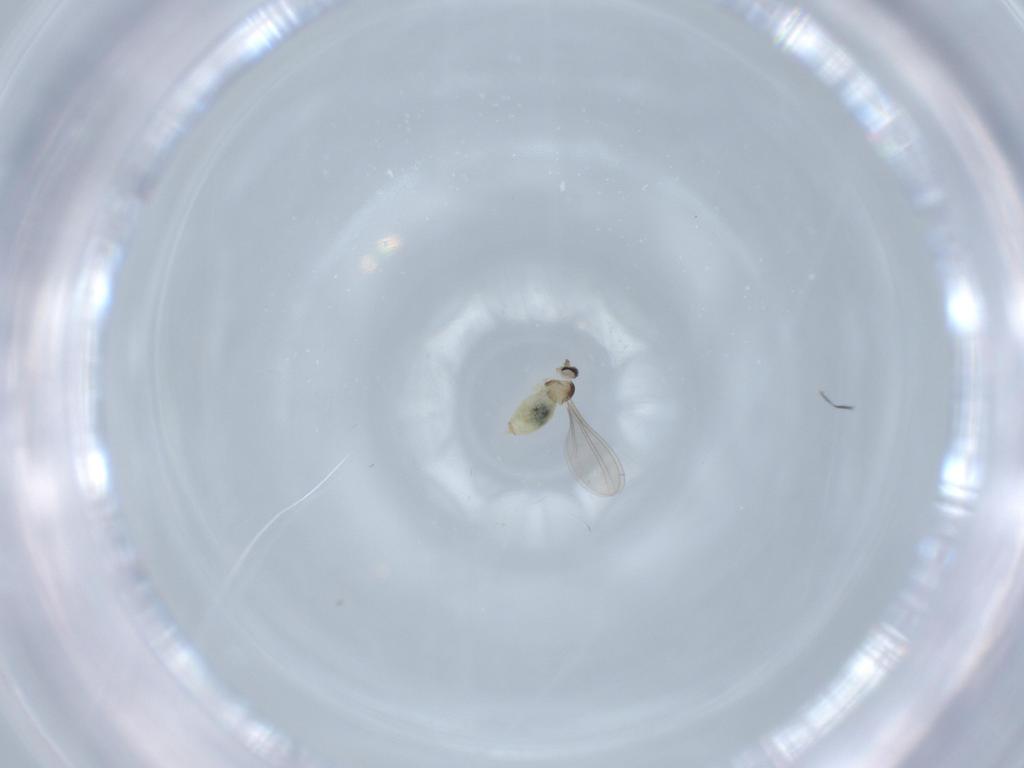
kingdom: Animalia
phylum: Arthropoda
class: Insecta
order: Diptera
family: Cecidomyiidae
